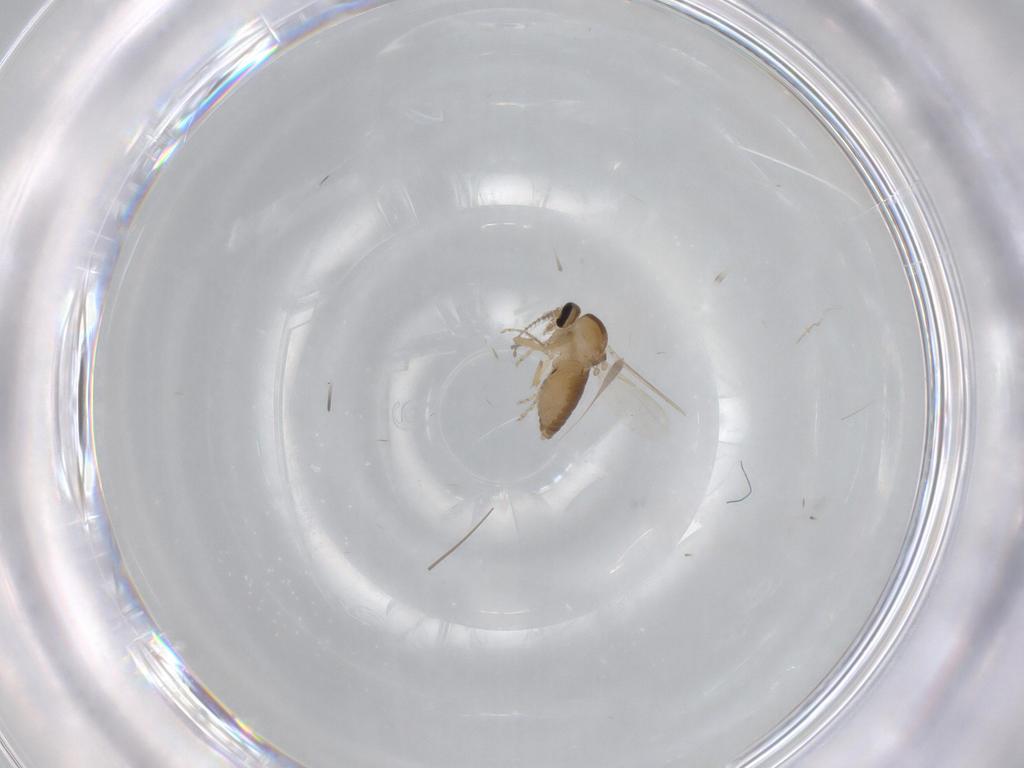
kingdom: Animalia
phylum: Arthropoda
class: Insecta
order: Diptera
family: Ceratopogonidae
